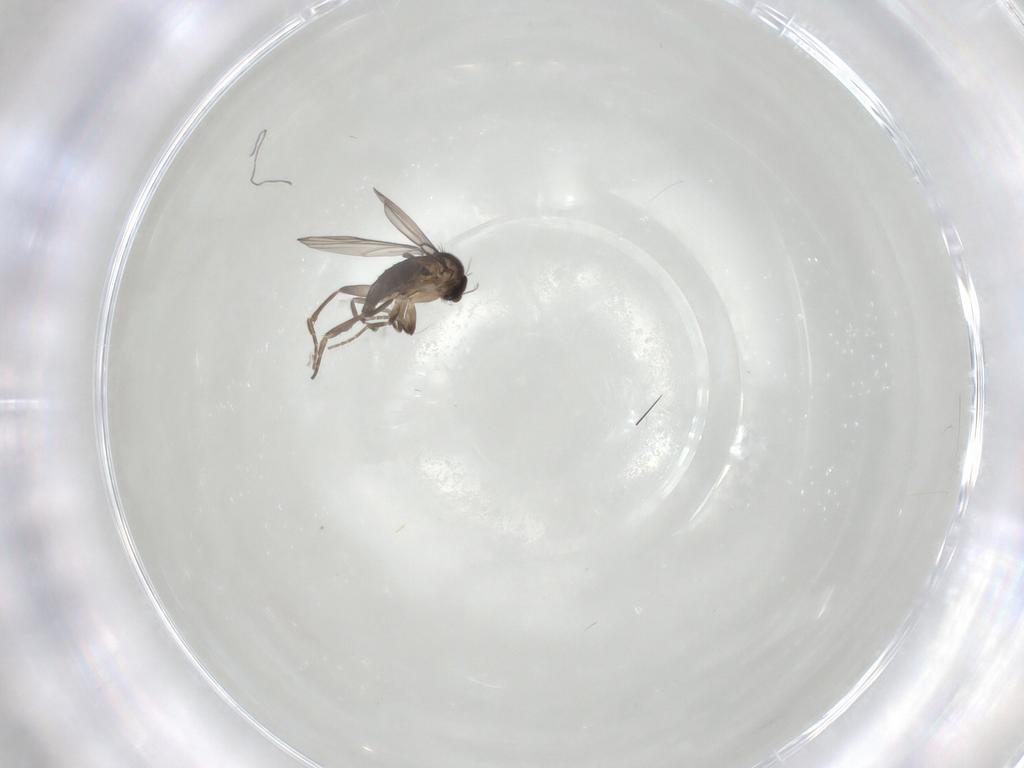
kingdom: Animalia
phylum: Arthropoda
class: Insecta
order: Diptera
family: Phoridae
